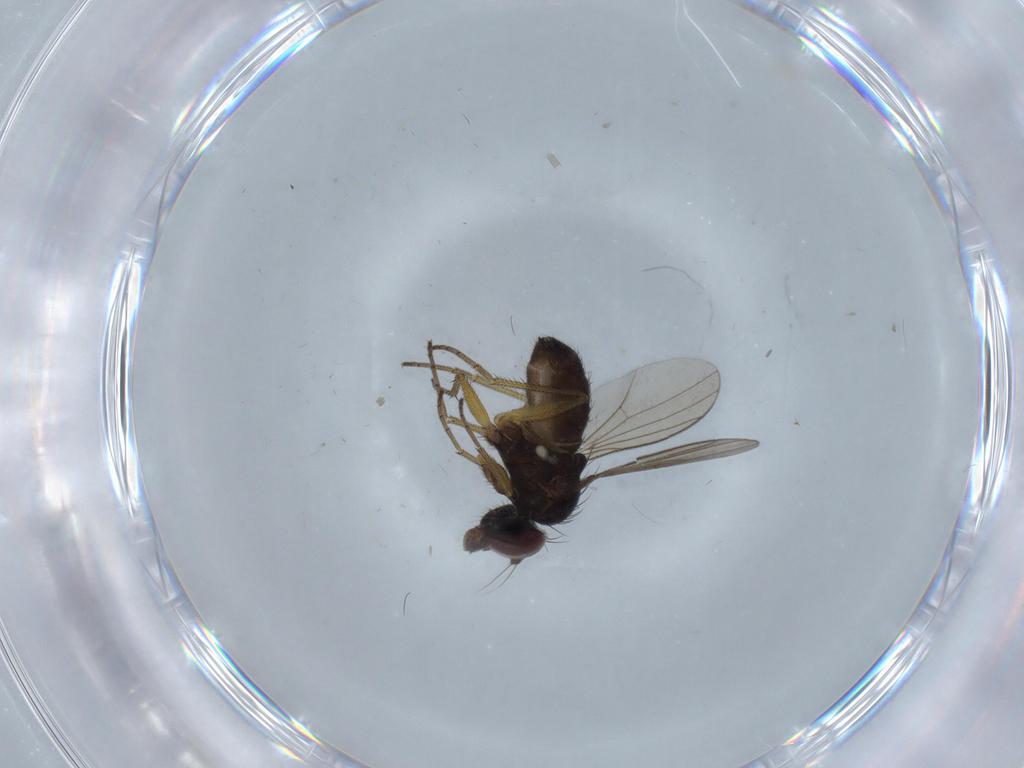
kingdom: Animalia
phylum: Arthropoda
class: Insecta
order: Diptera
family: Dolichopodidae
